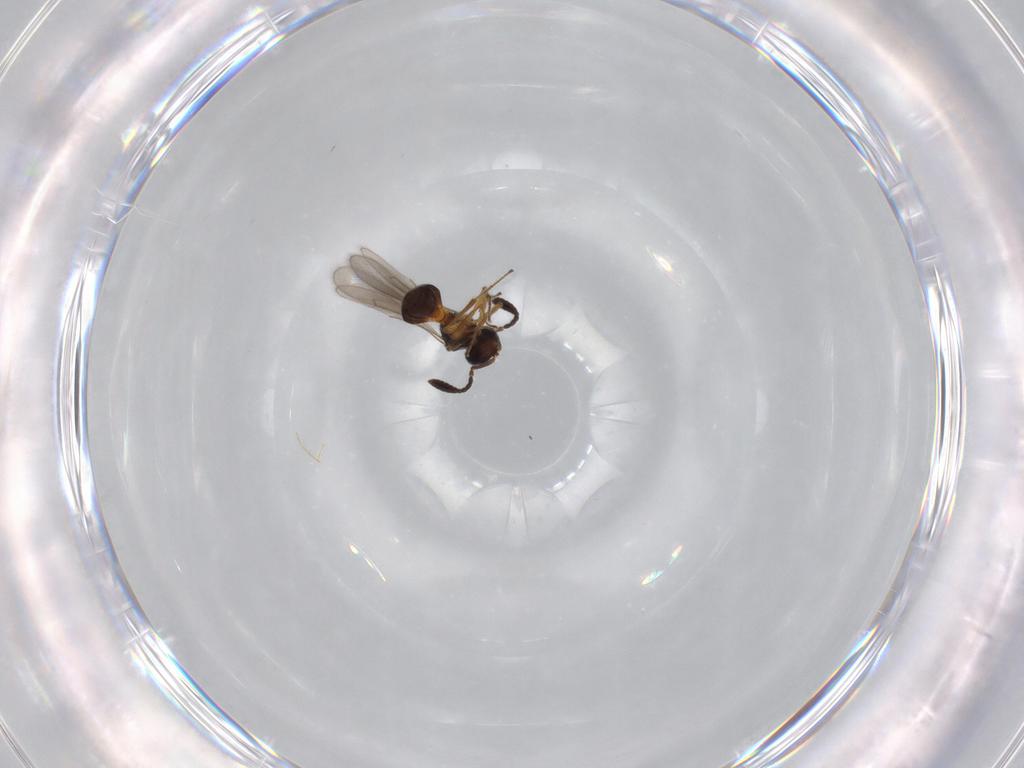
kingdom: Animalia
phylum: Arthropoda
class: Insecta
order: Hymenoptera
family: Scelionidae
